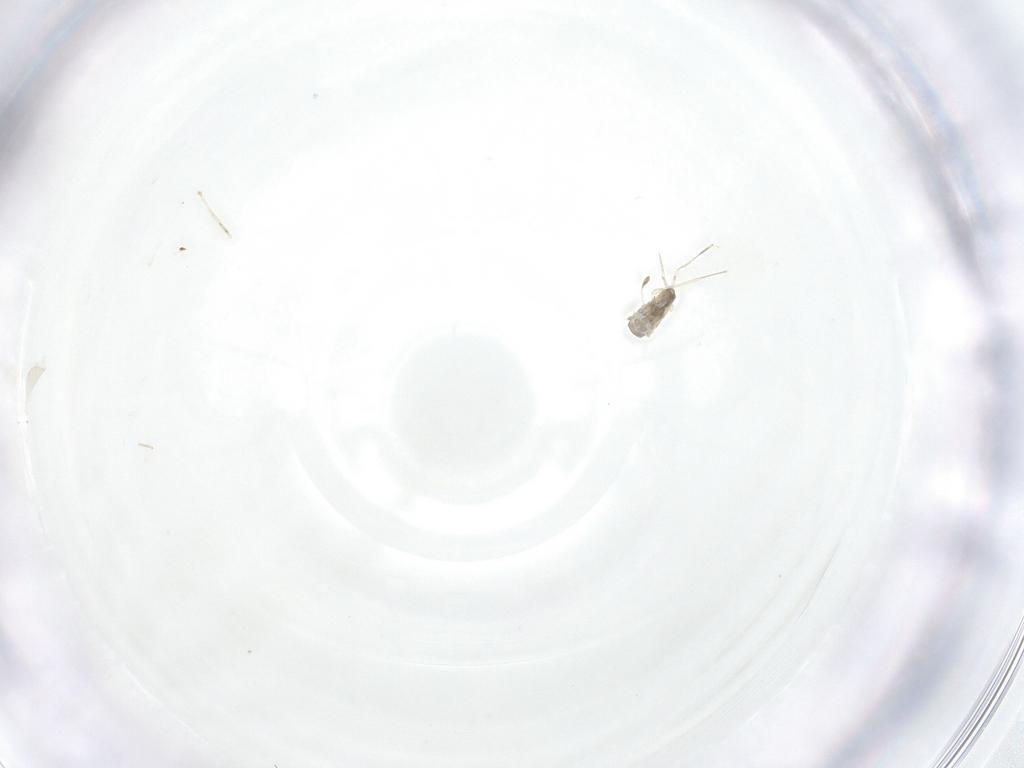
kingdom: Animalia
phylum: Arthropoda
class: Insecta
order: Diptera
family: Cecidomyiidae
